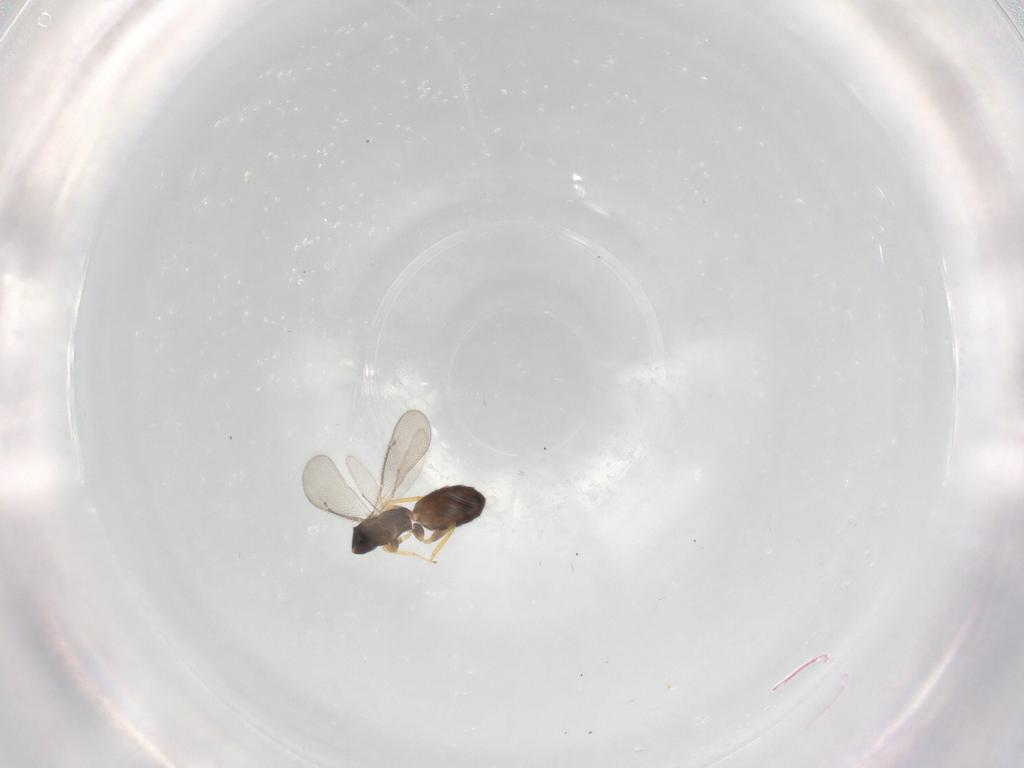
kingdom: Animalia
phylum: Arthropoda
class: Insecta
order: Hymenoptera
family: Eulophidae
